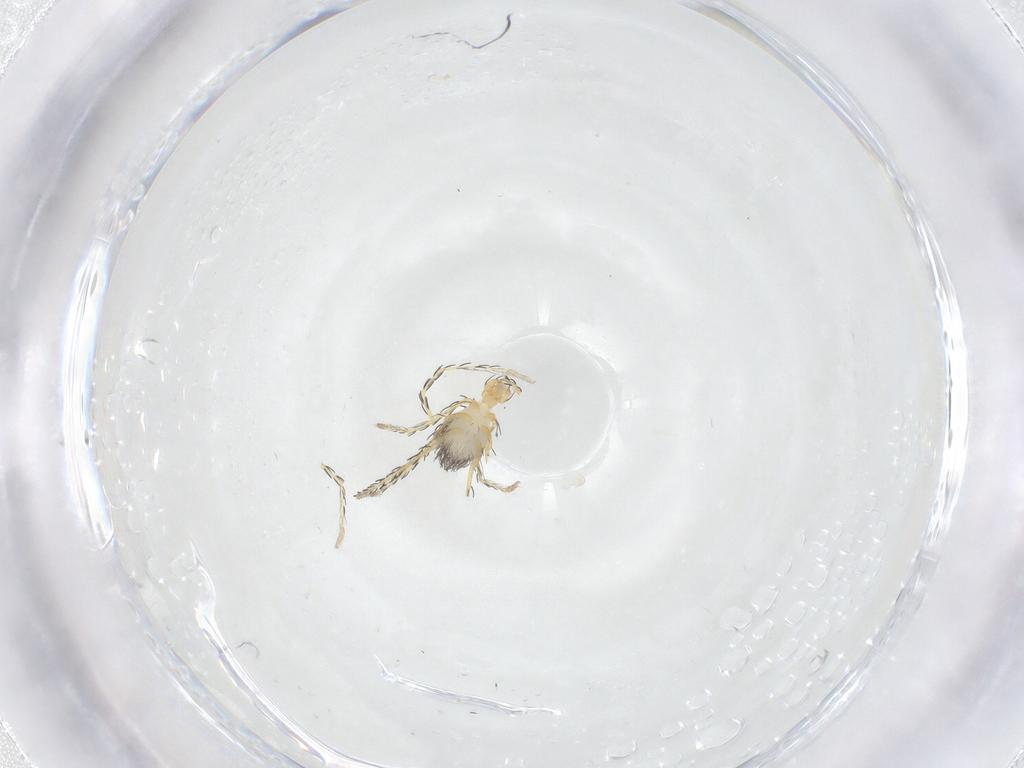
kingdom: Animalia
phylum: Arthropoda
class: Arachnida
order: Trombidiformes
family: Erythraeidae
